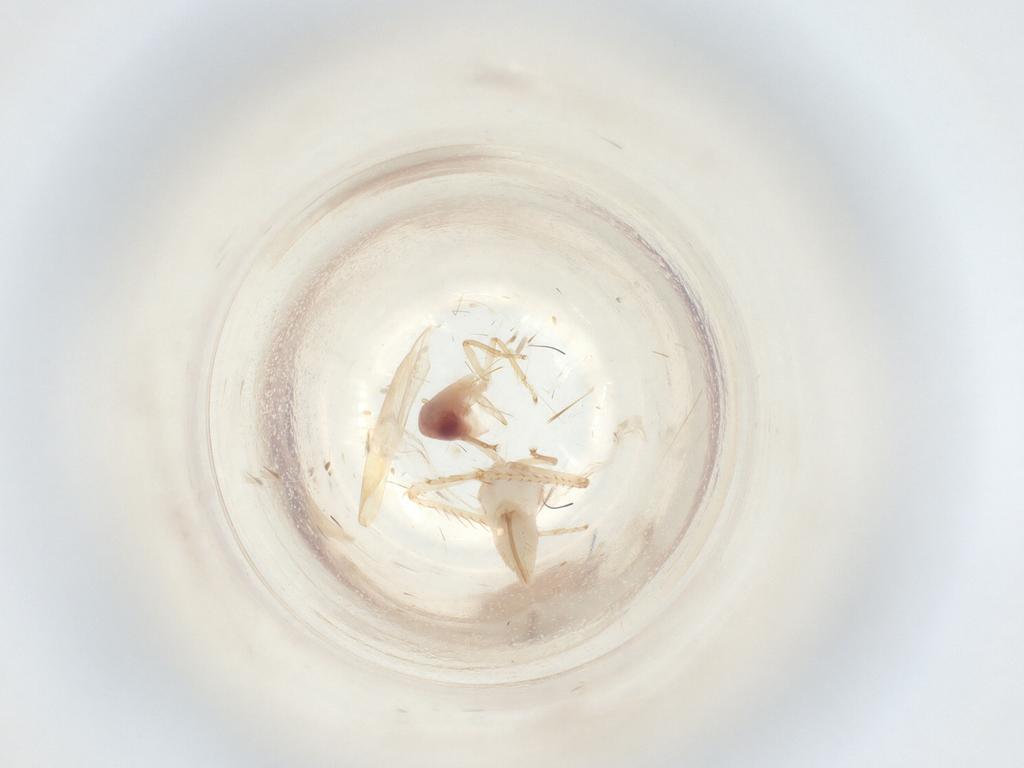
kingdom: Animalia
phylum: Arthropoda
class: Insecta
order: Hemiptera
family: Cicadellidae
